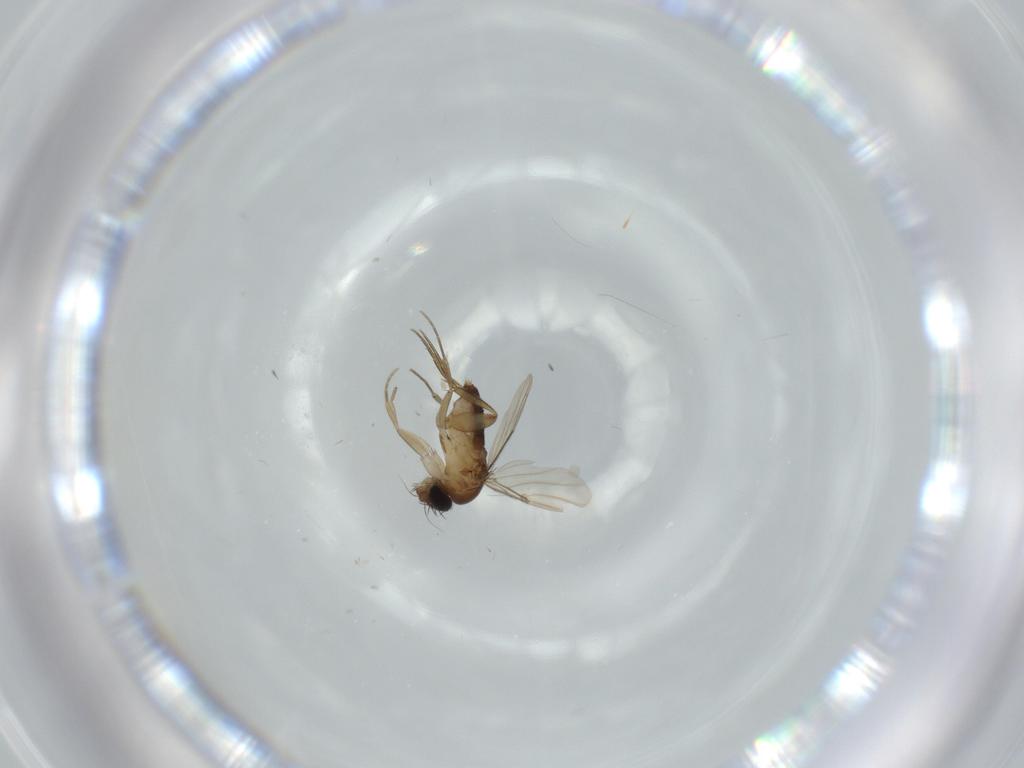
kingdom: Animalia
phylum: Arthropoda
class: Insecta
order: Diptera
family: Phoridae
